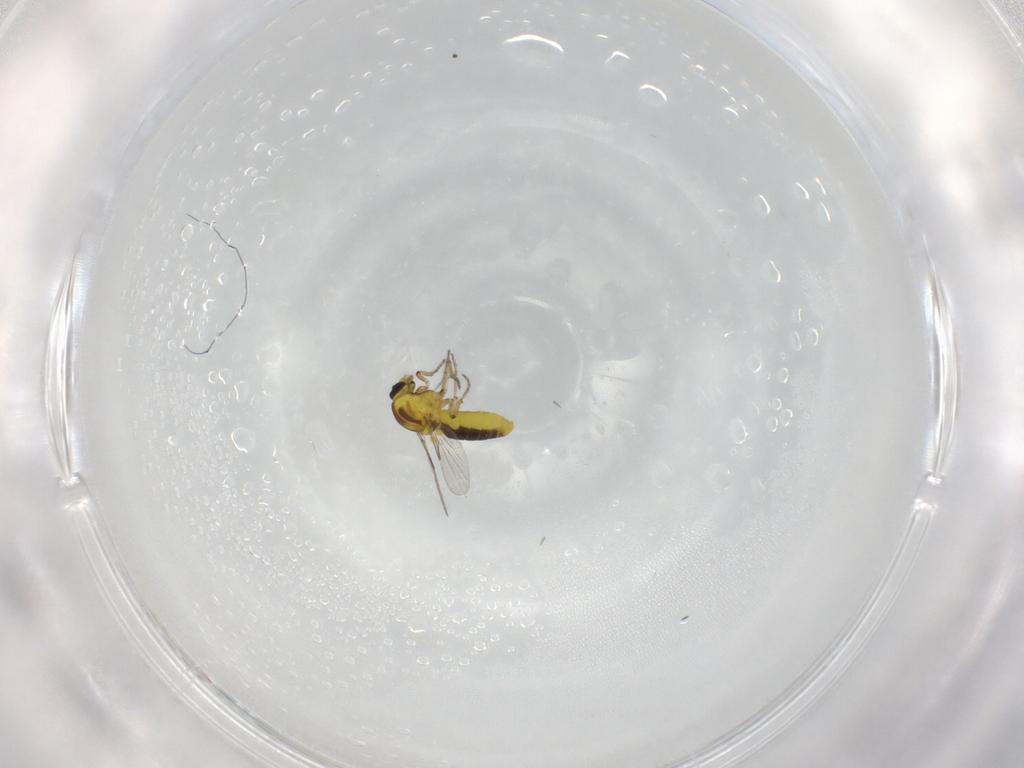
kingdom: Animalia
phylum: Arthropoda
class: Insecta
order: Diptera
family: Ceratopogonidae
